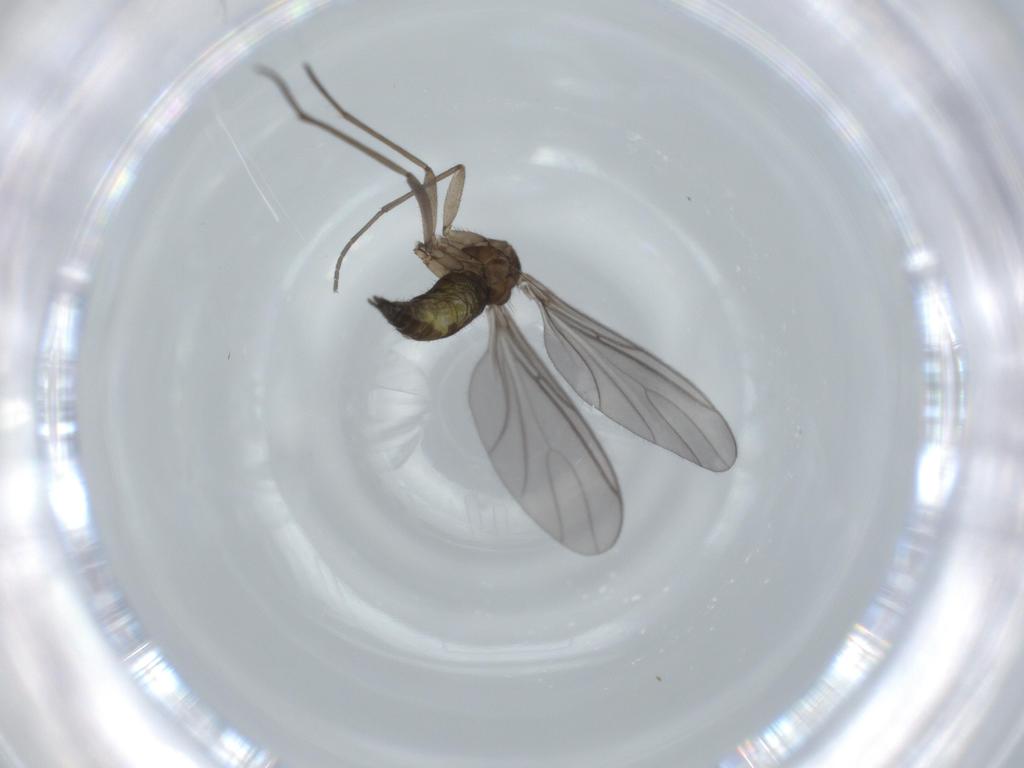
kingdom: Animalia
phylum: Arthropoda
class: Insecta
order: Diptera
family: Sciaridae
